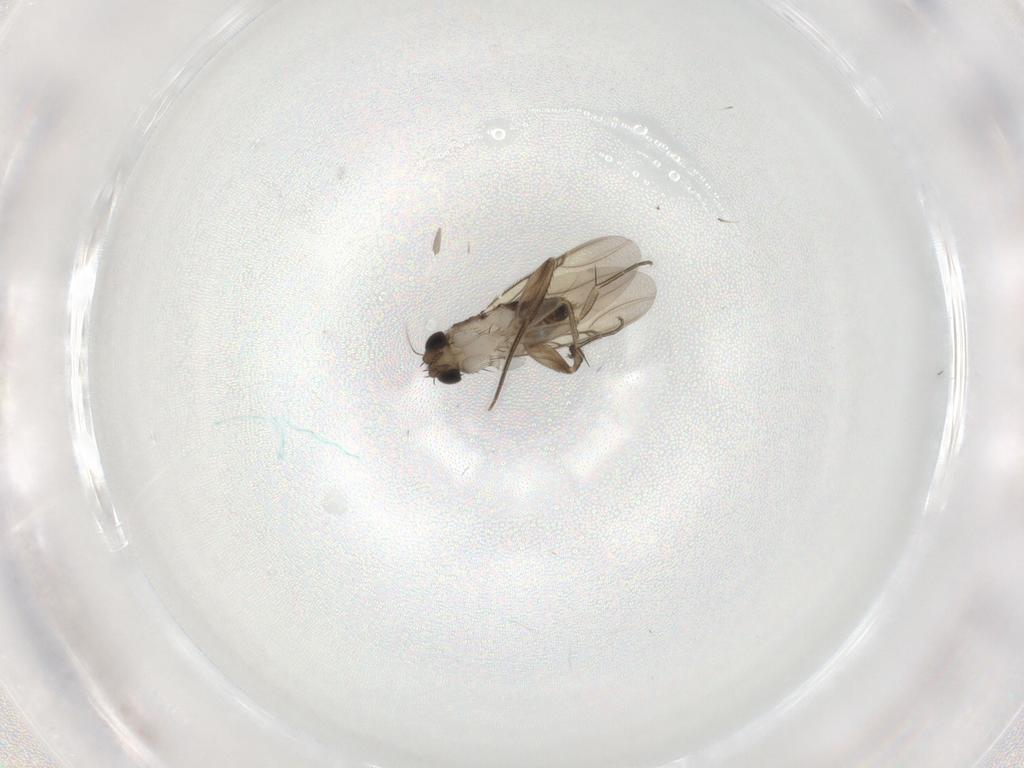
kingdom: Animalia
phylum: Arthropoda
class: Insecta
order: Diptera
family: Phoridae
